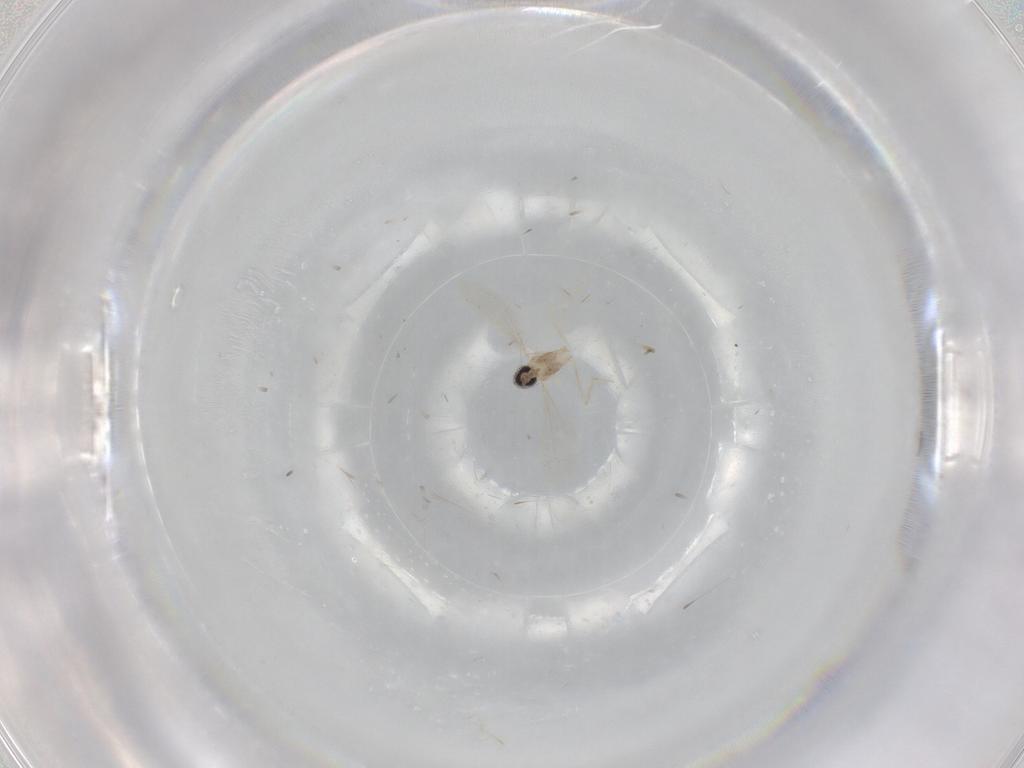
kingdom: Animalia
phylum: Arthropoda
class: Insecta
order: Diptera
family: Cecidomyiidae
